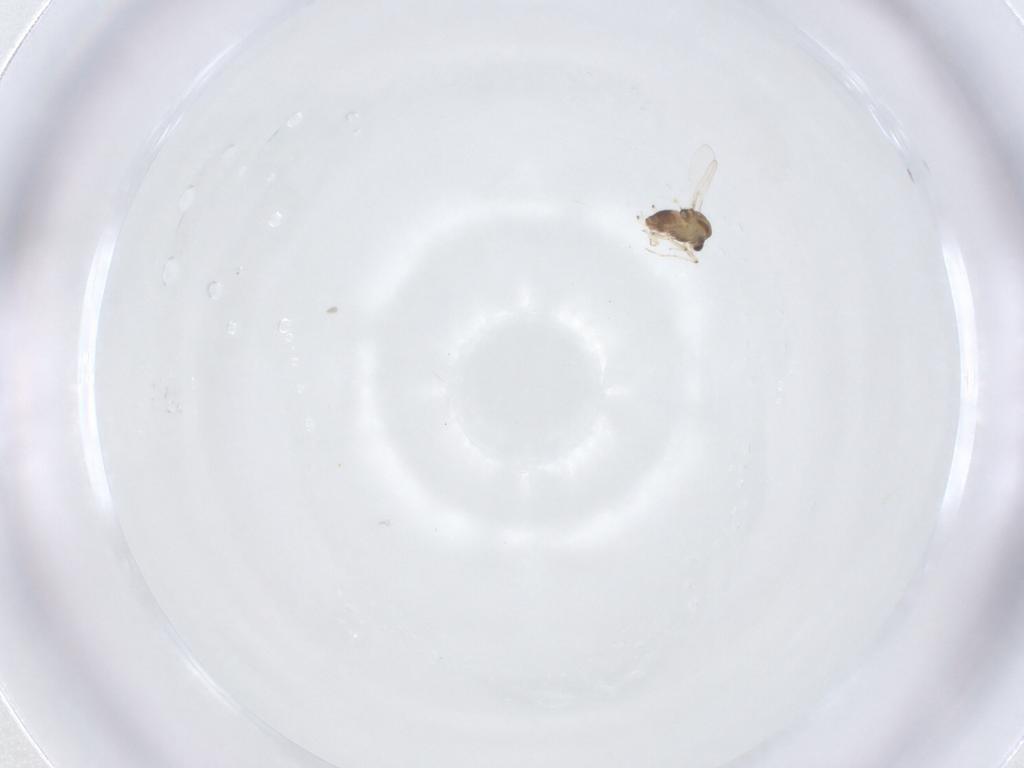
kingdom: Animalia
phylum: Arthropoda
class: Insecta
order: Diptera
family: Chironomidae
